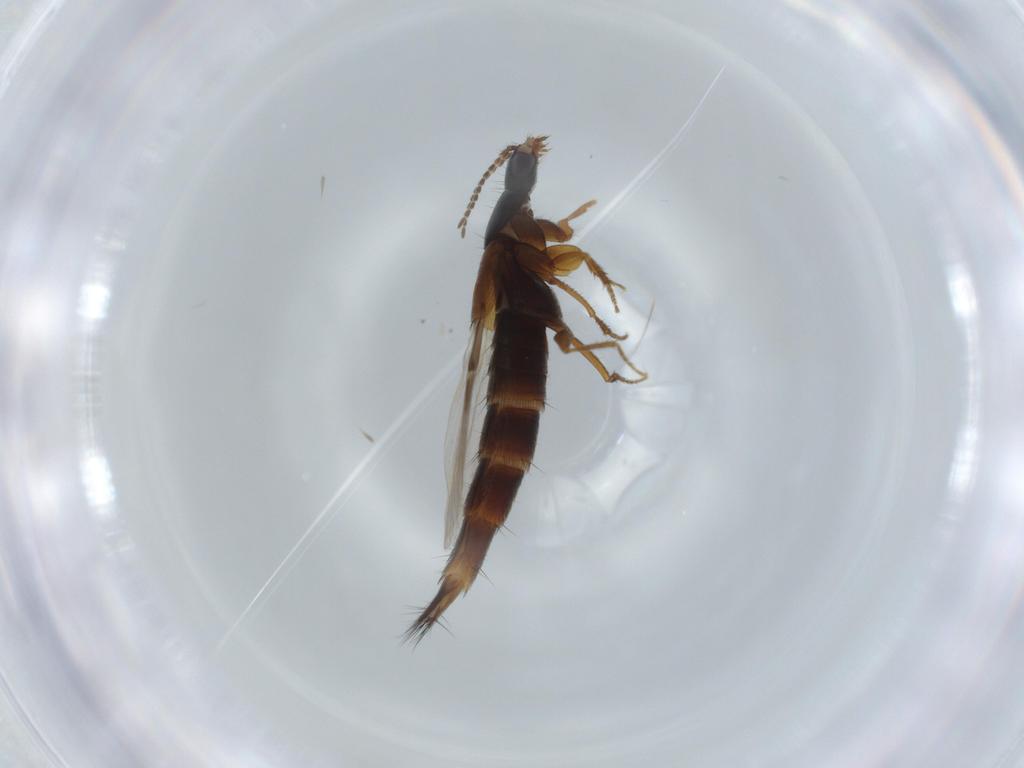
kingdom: Animalia
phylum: Arthropoda
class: Insecta
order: Coleoptera
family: Staphylinidae
